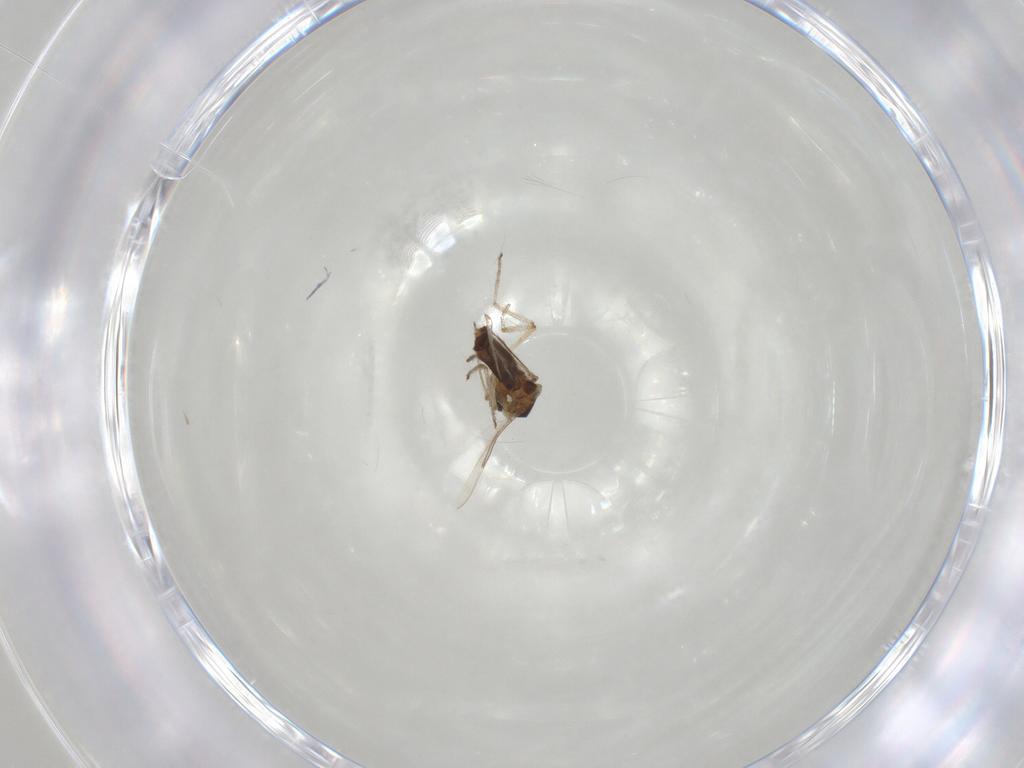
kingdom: Animalia
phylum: Arthropoda
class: Insecta
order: Diptera
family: Ceratopogonidae
